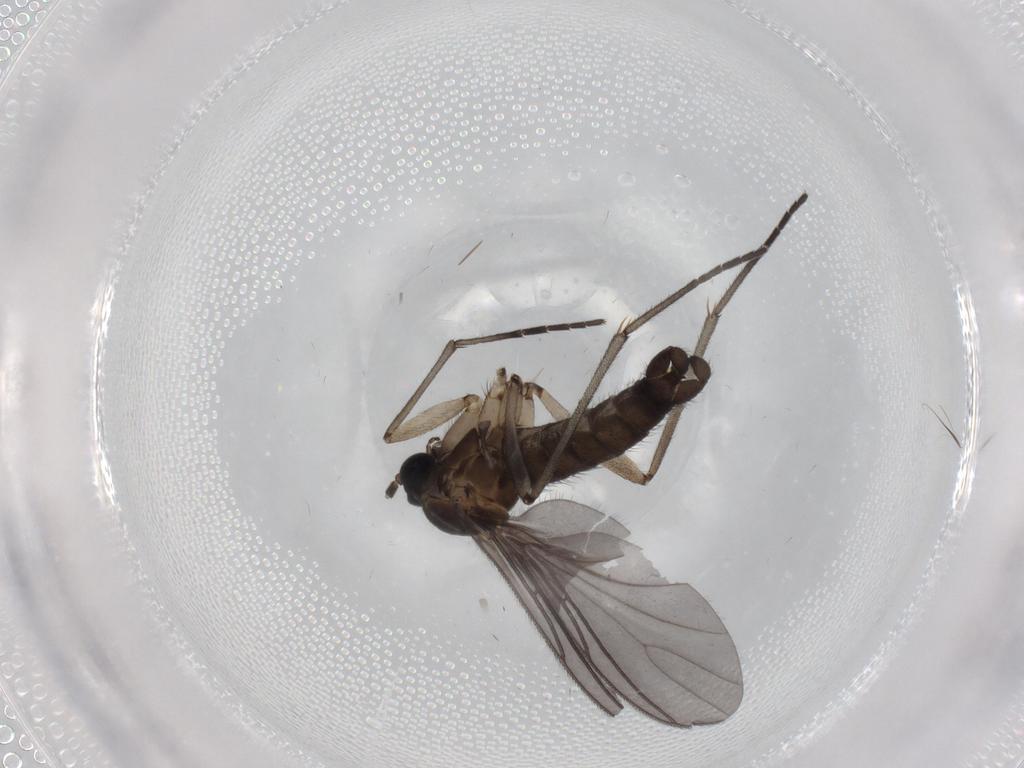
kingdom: Animalia
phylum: Arthropoda
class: Insecta
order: Diptera
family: Sciaridae
